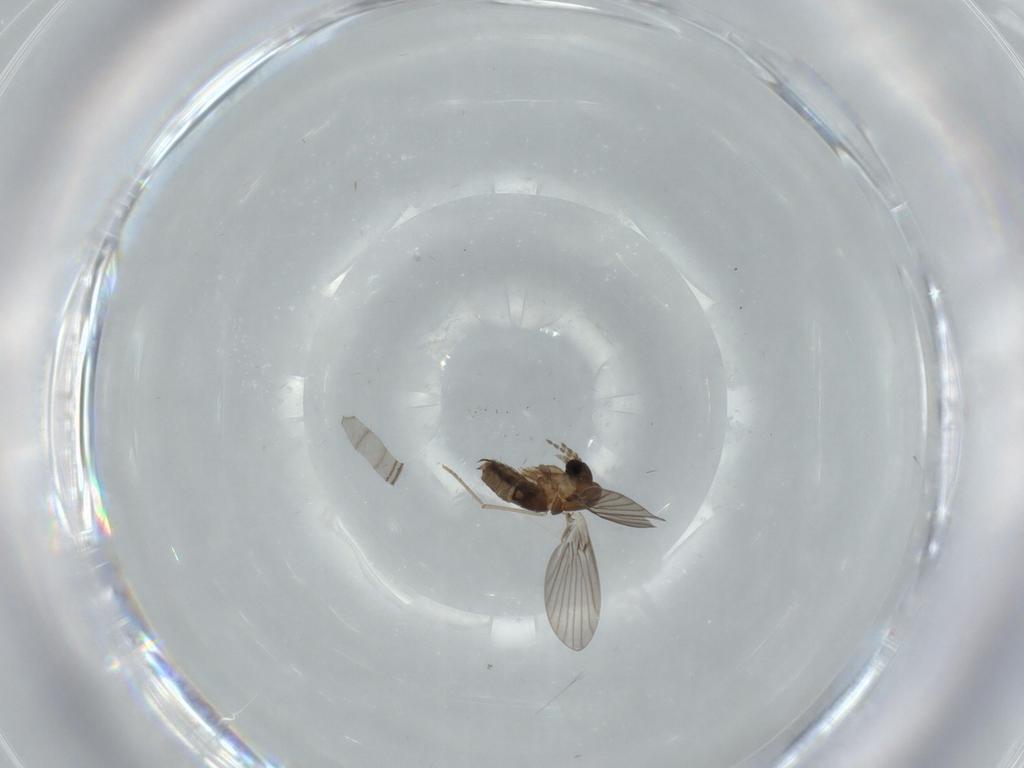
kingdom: Animalia
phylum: Arthropoda
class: Insecta
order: Diptera
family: Psychodidae
